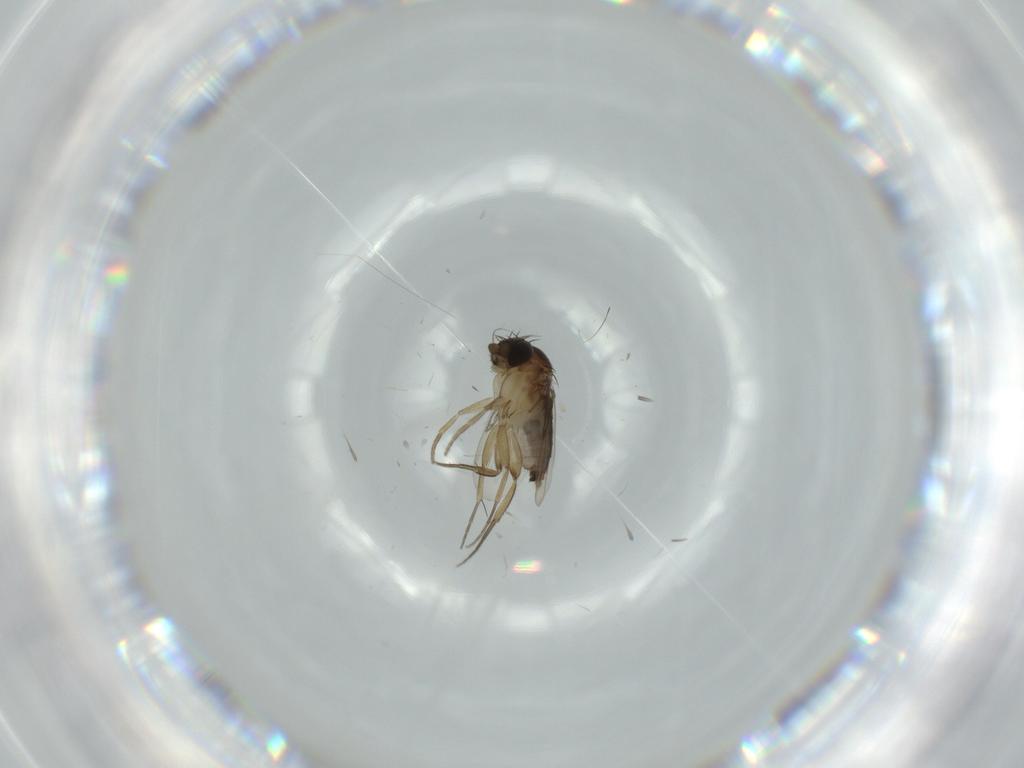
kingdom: Animalia
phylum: Arthropoda
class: Insecta
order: Diptera
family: Phoridae
